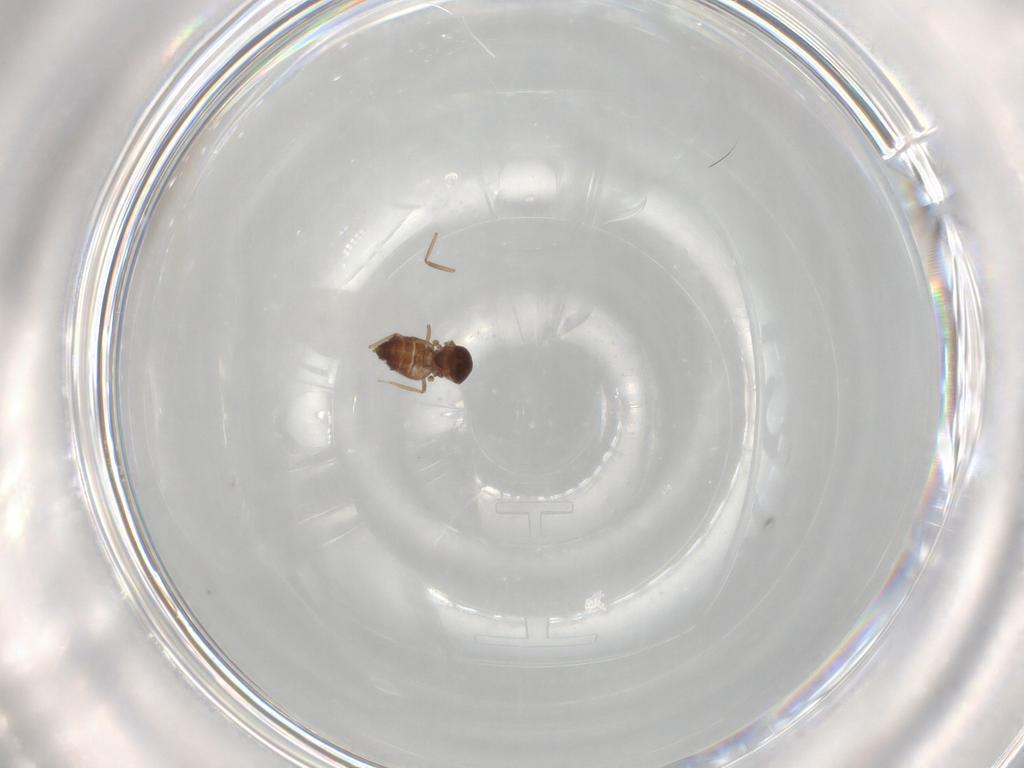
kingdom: Animalia
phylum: Arthropoda
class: Insecta
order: Diptera
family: Ceratopogonidae
